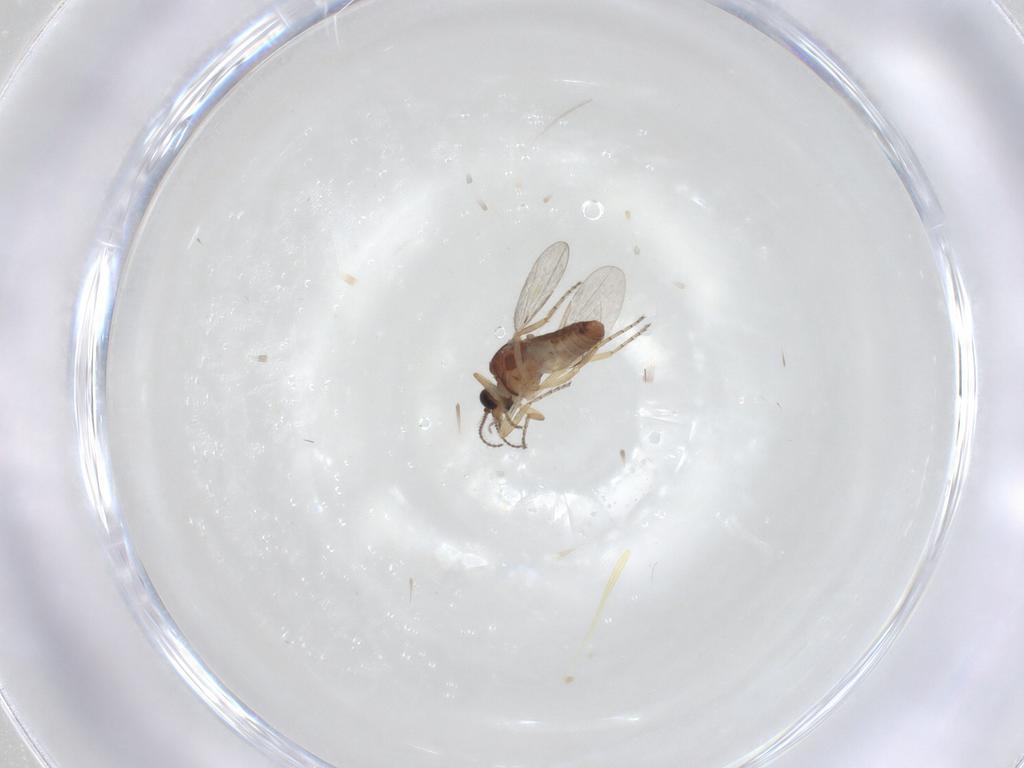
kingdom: Animalia
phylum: Arthropoda
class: Insecta
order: Diptera
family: Ceratopogonidae
